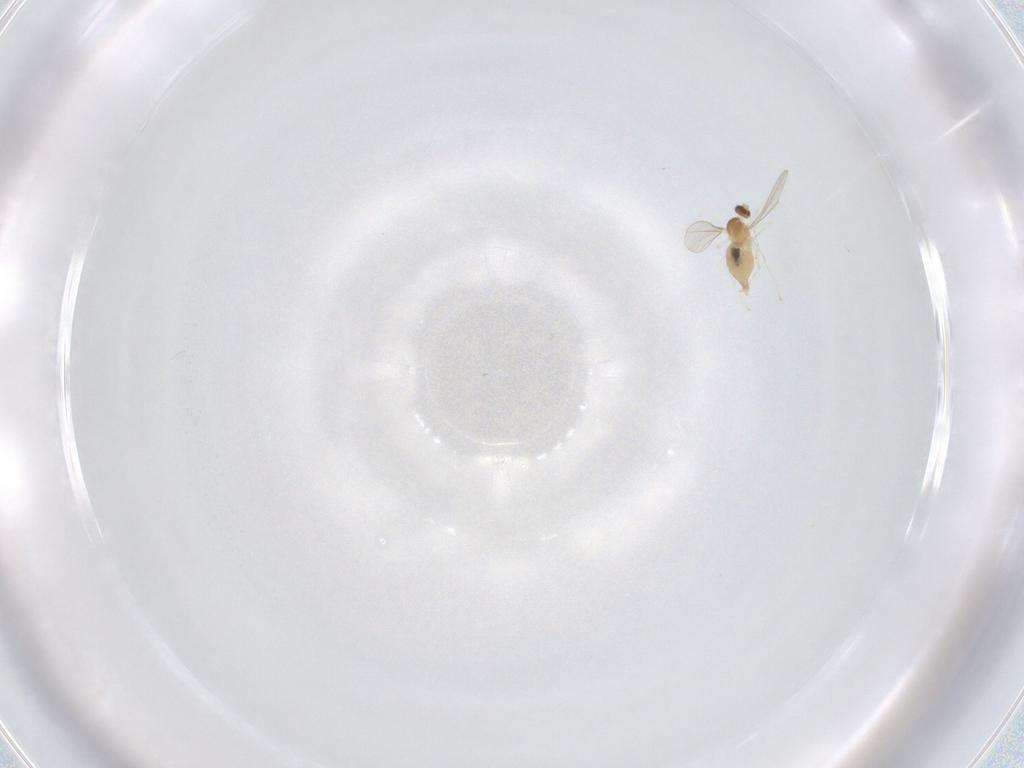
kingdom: Animalia
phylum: Arthropoda
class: Insecta
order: Diptera
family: Cecidomyiidae
